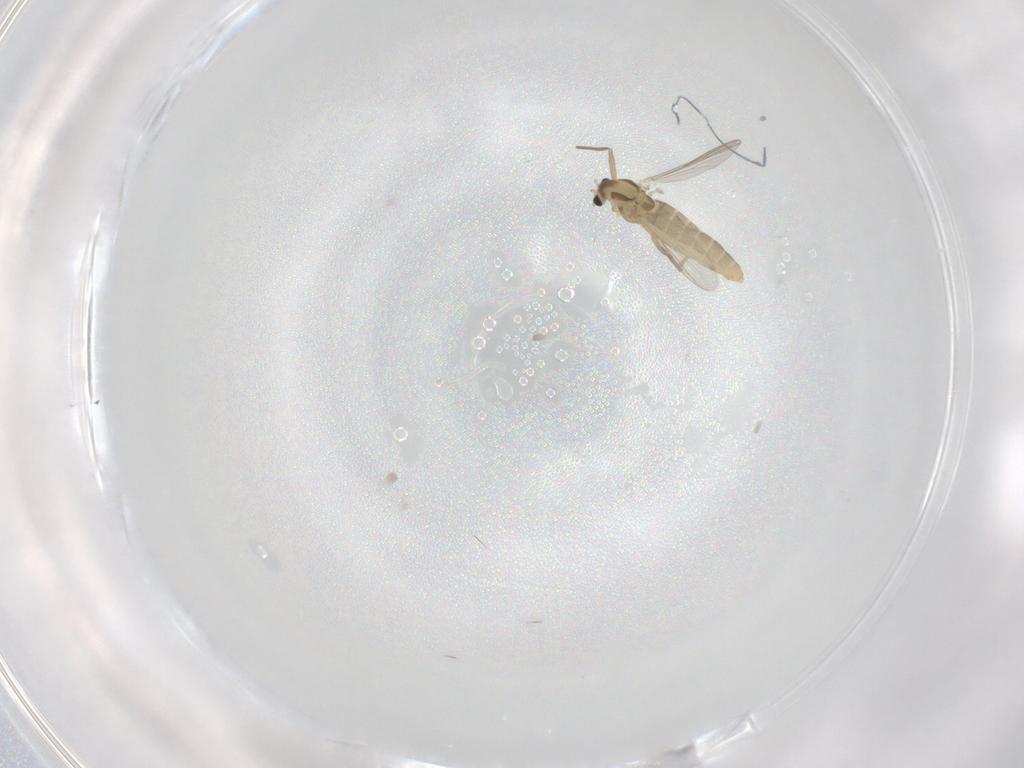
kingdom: Animalia
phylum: Arthropoda
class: Insecta
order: Diptera
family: Chironomidae
